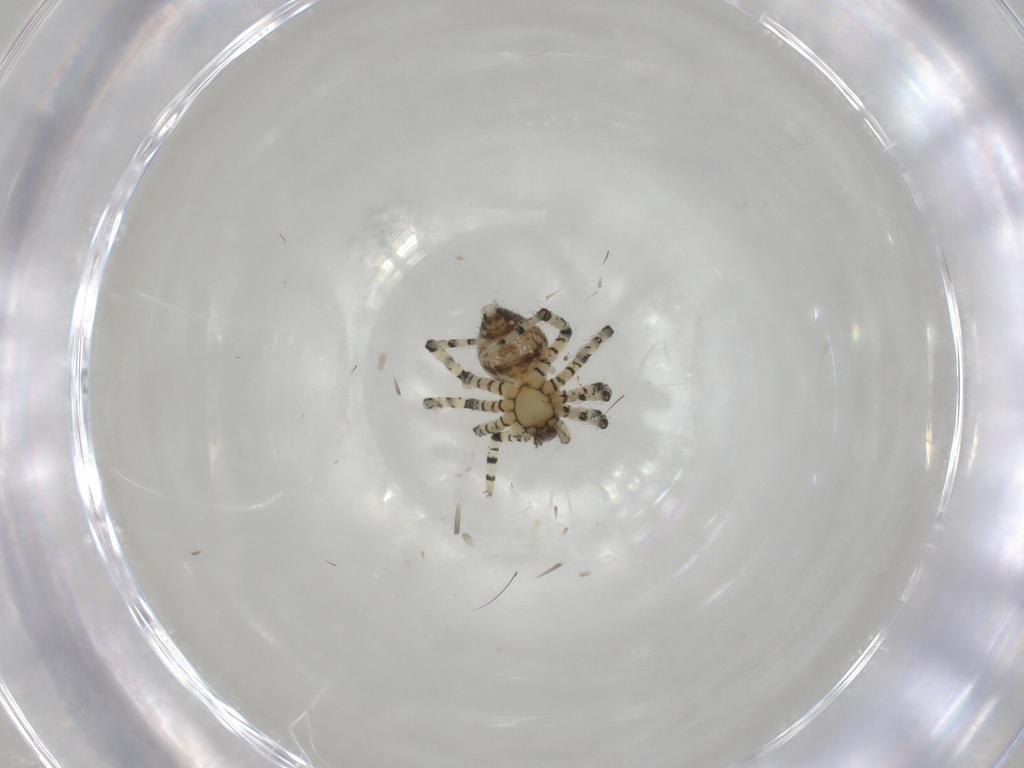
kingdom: Animalia
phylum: Arthropoda
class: Arachnida
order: Araneae
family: Theridiidae
